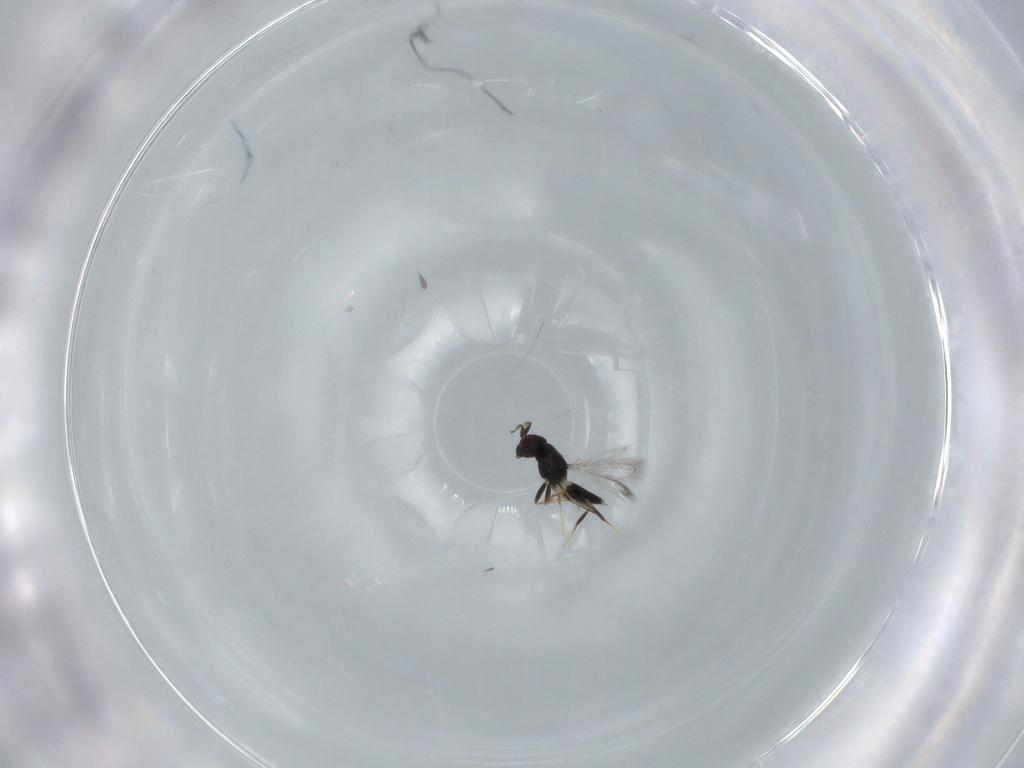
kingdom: Animalia
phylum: Arthropoda
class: Insecta
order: Hymenoptera
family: Mymaridae
